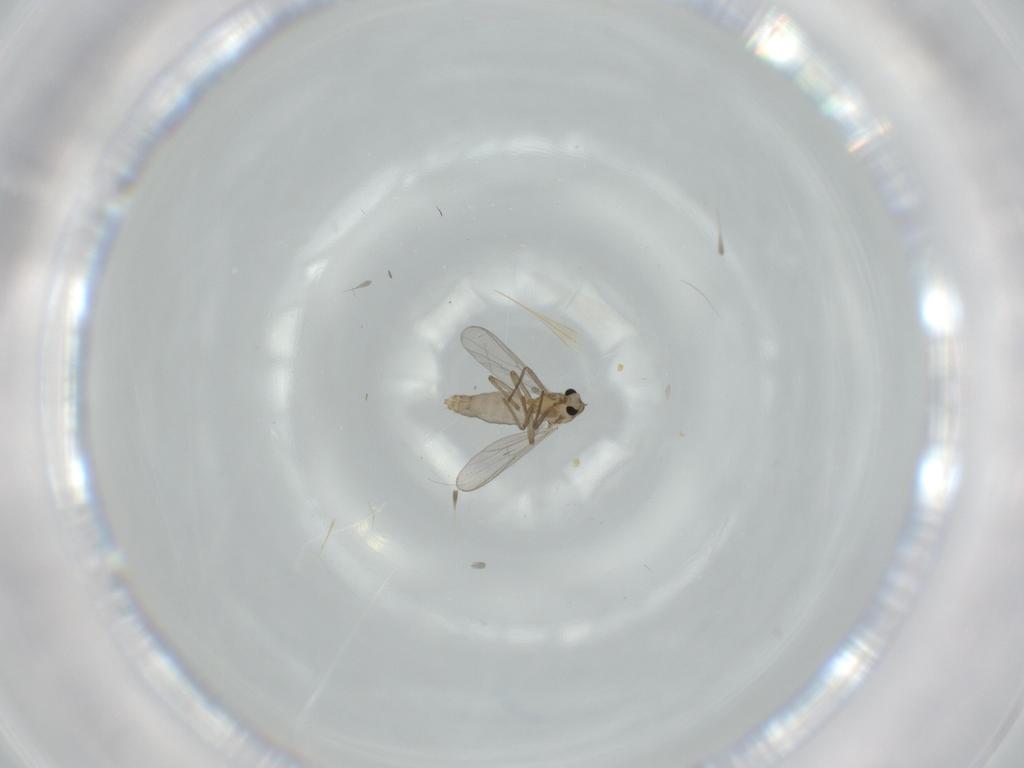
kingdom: Animalia
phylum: Arthropoda
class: Insecta
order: Diptera
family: Chironomidae
